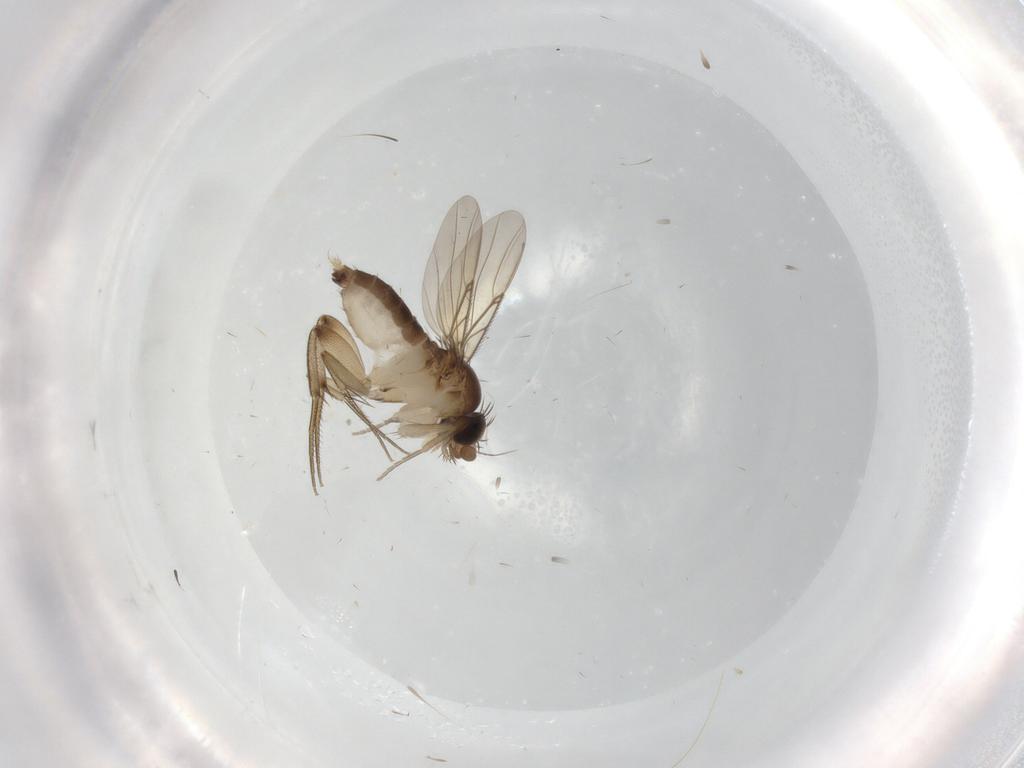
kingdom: Animalia
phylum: Arthropoda
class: Insecta
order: Diptera
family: Phoridae
